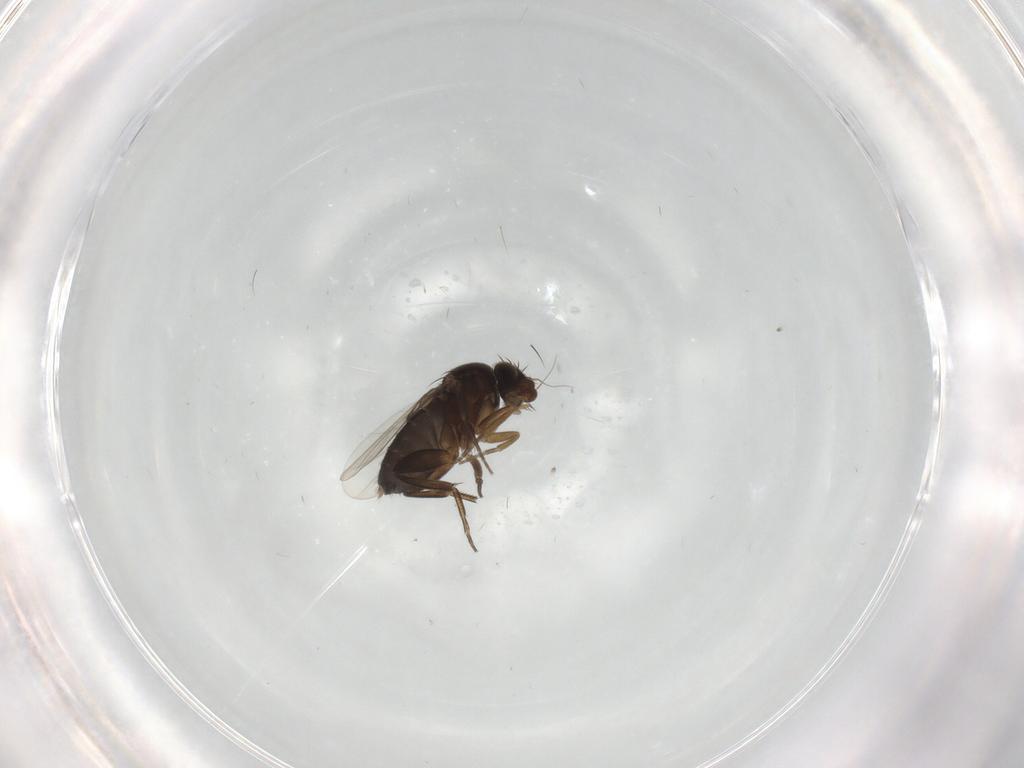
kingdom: Animalia
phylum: Arthropoda
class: Insecta
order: Diptera
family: Phoridae
